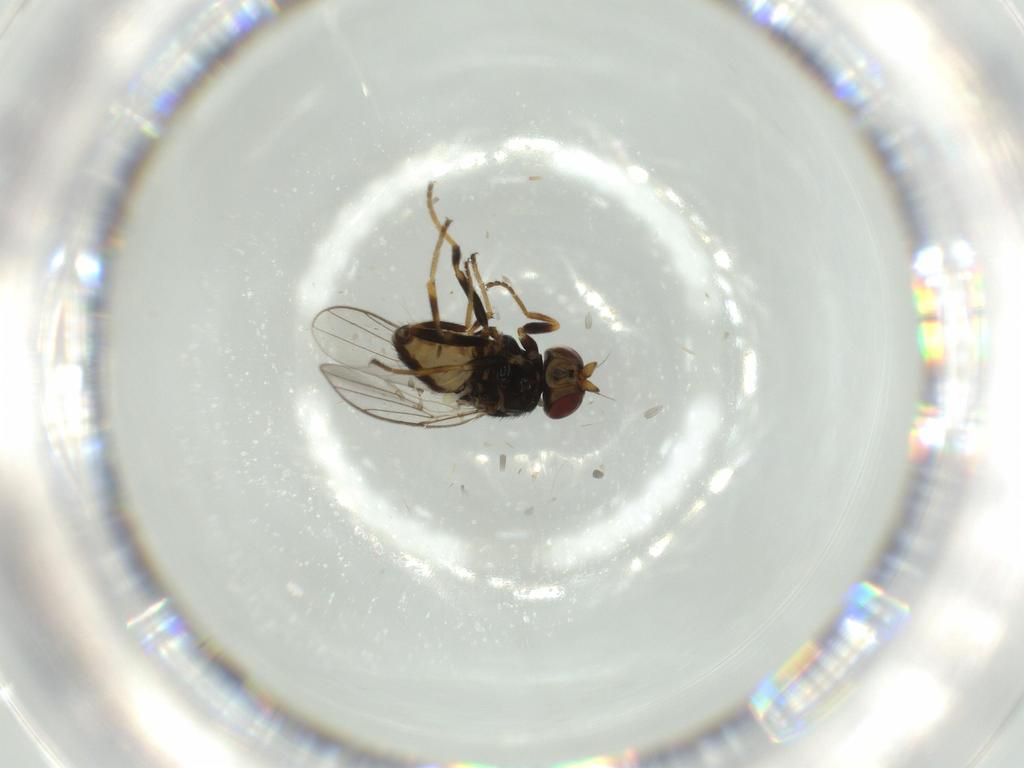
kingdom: Animalia
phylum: Arthropoda
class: Insecta
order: Diptera
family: Chloropidae
